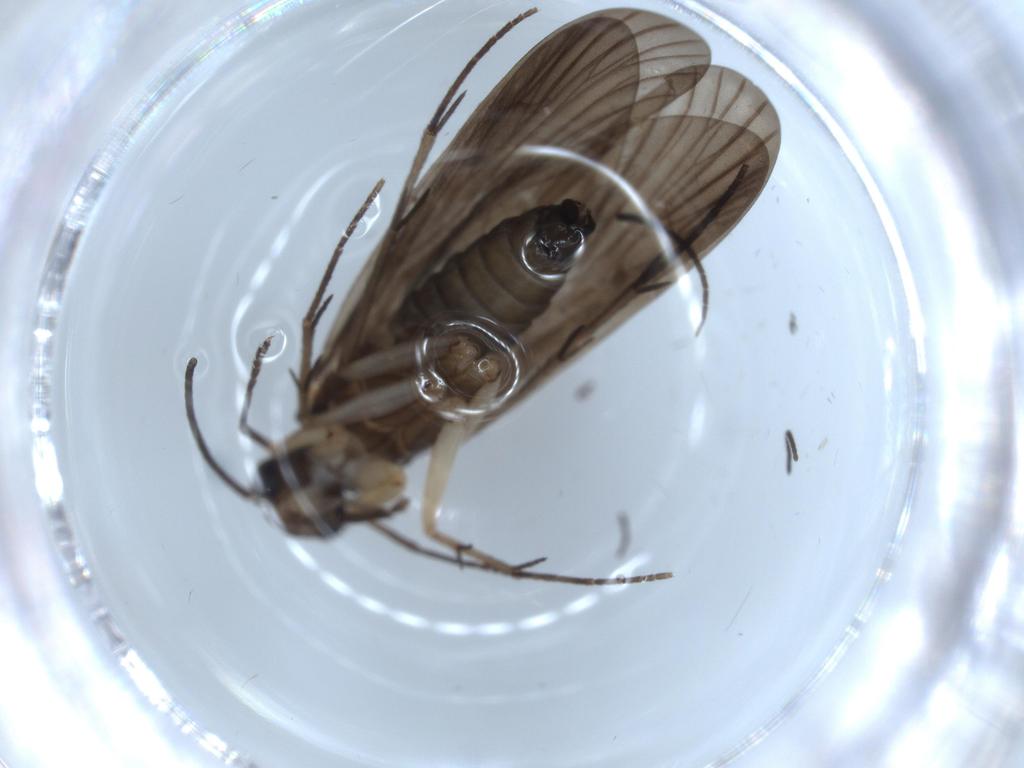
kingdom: Animalia
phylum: Arthropoda
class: Insecta
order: Trichoptera
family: Philopotamidae
